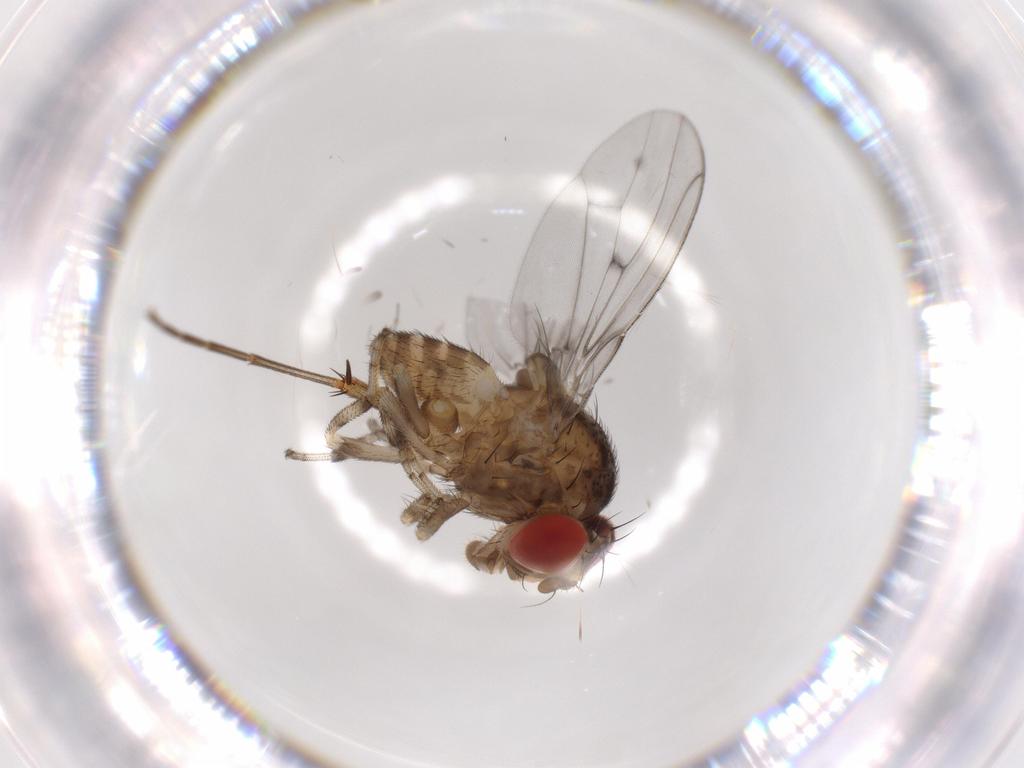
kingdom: Animalia
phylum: Arthropoda
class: Insecta
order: Diptera
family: Drosophilidae
